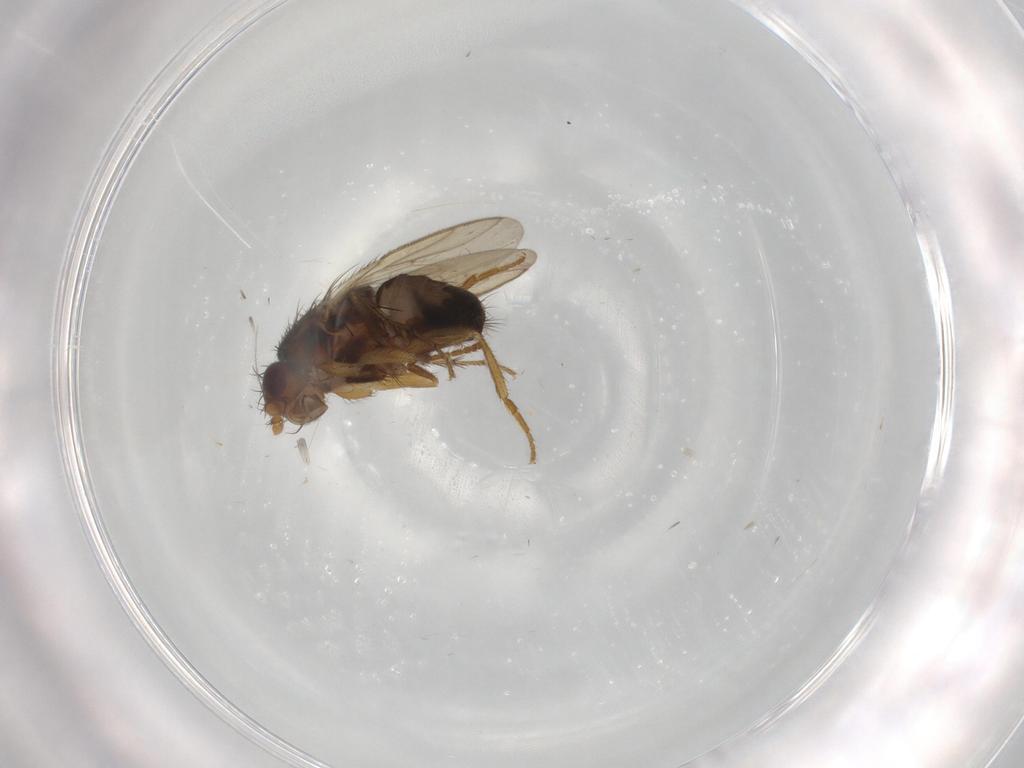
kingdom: Animalia
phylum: Arthropoda
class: Insecta
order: Diptera
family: Sphaeroceridae
